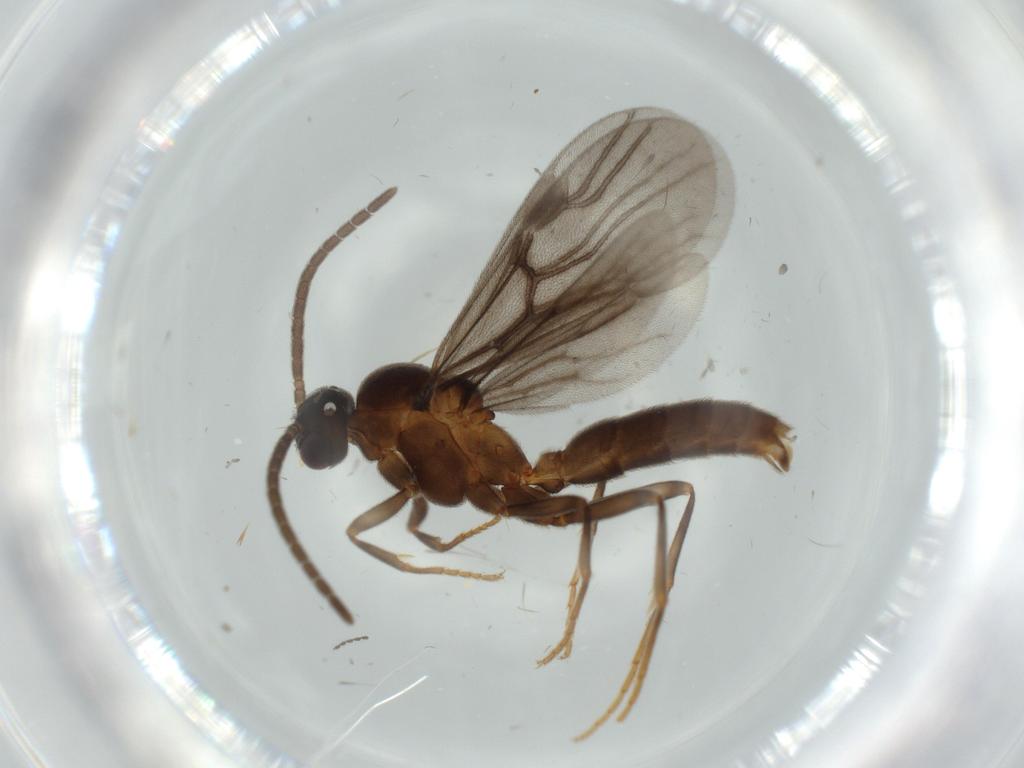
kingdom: Animalia
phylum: Arthropoda
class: Insecta
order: Hymenoptera
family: Formicidae
